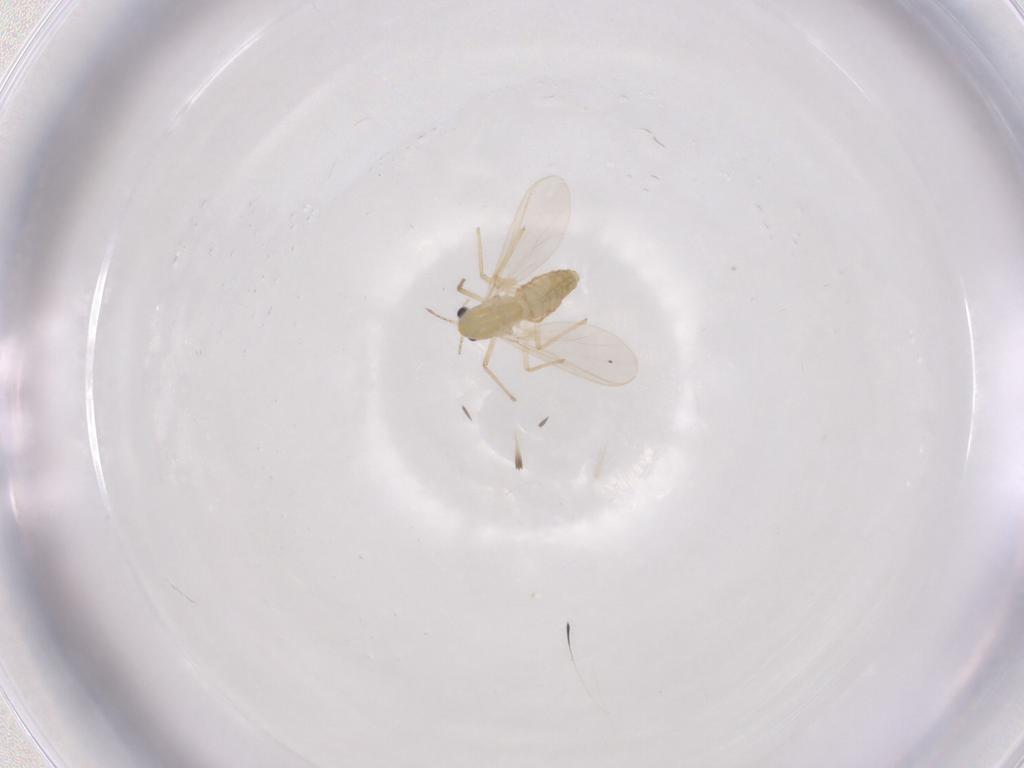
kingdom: Animalia
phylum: Arthropoda
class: Insecta
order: Diptera
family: Chironomidae
